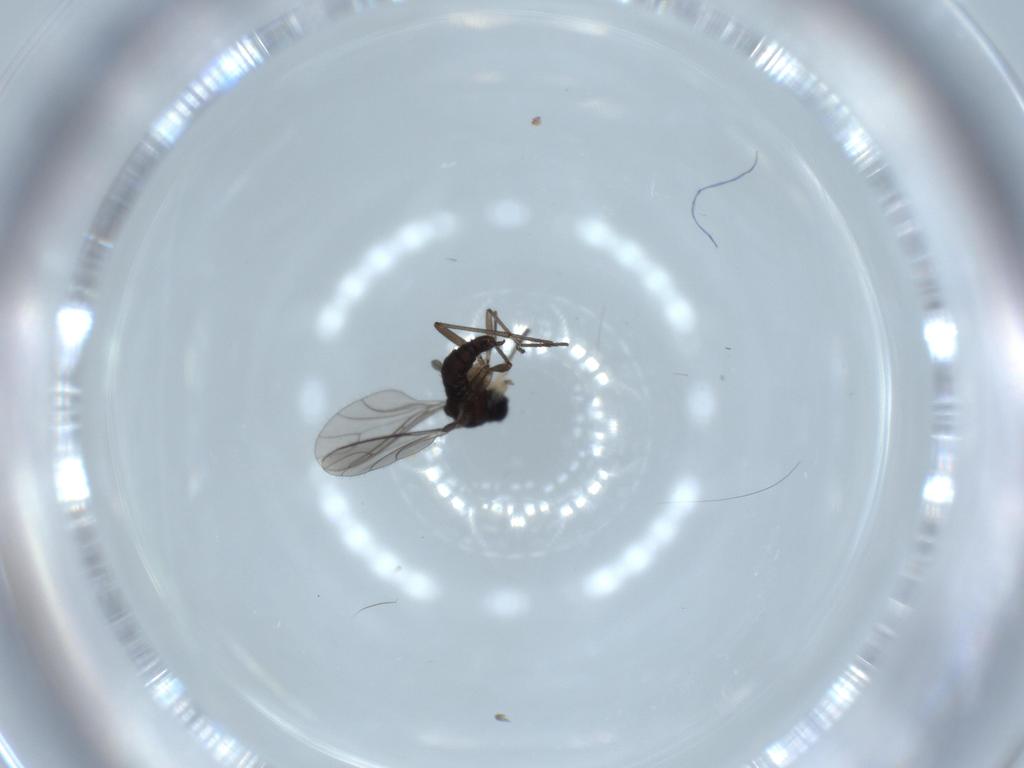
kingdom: Animalia
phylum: Arthropoda
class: Insecta
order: Diptera
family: Sciaridae
